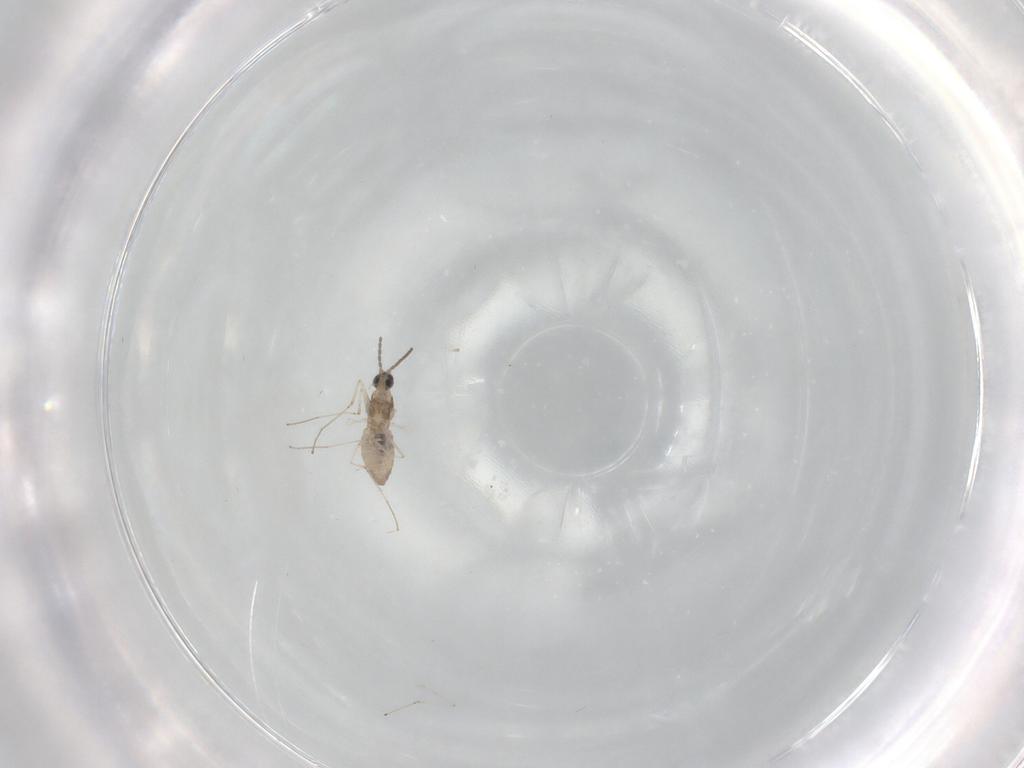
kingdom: Animalia
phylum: Arthropoda
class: Insecta
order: Diptera
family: Cecidomyiidae
